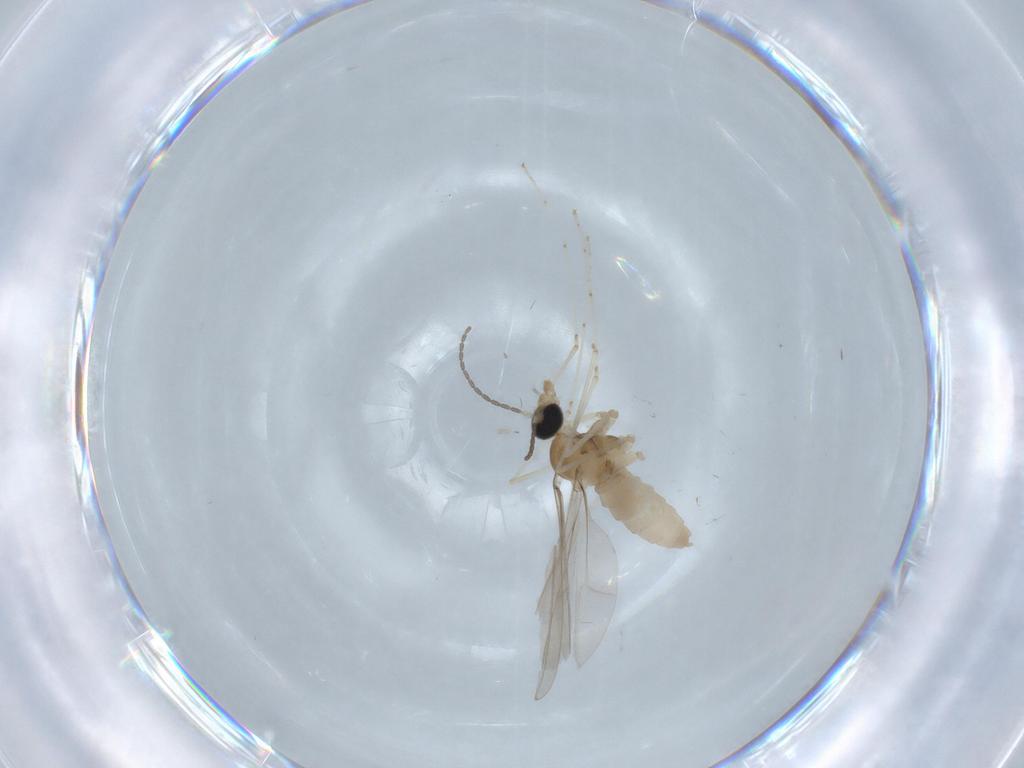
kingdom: Animalia
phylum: Arthropoda
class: Insecta
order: Diptera
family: Cecidomyiidae
